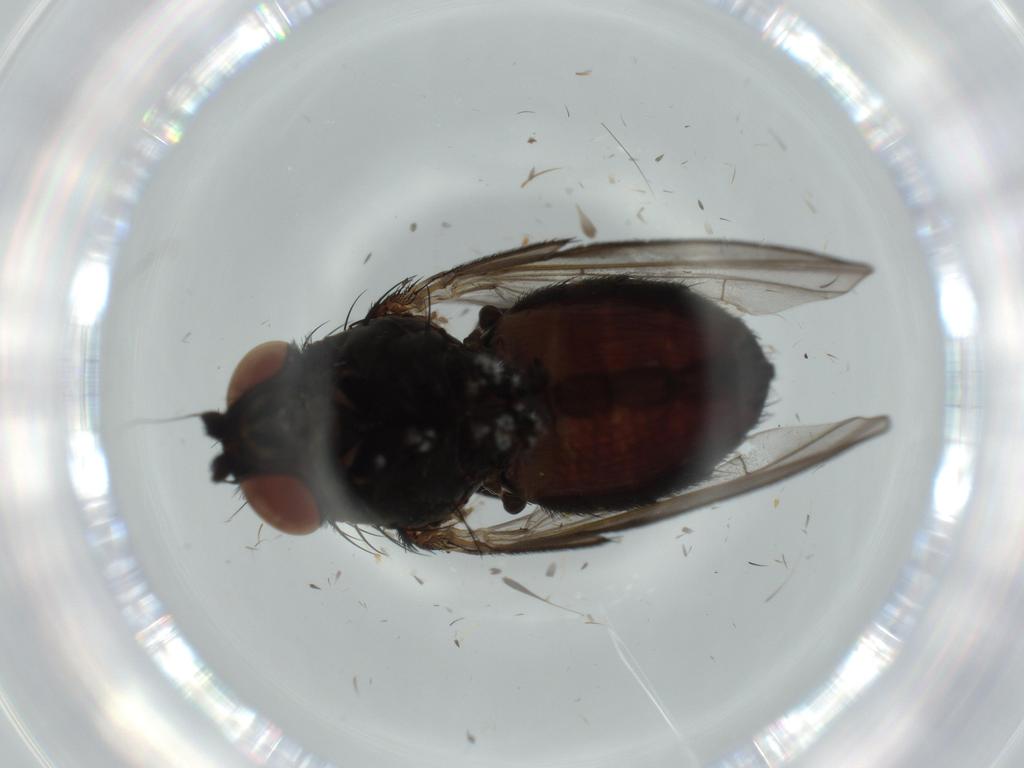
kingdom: Animalia
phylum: Arthropoda
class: Insecta
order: Diptera
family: Milichiidae
